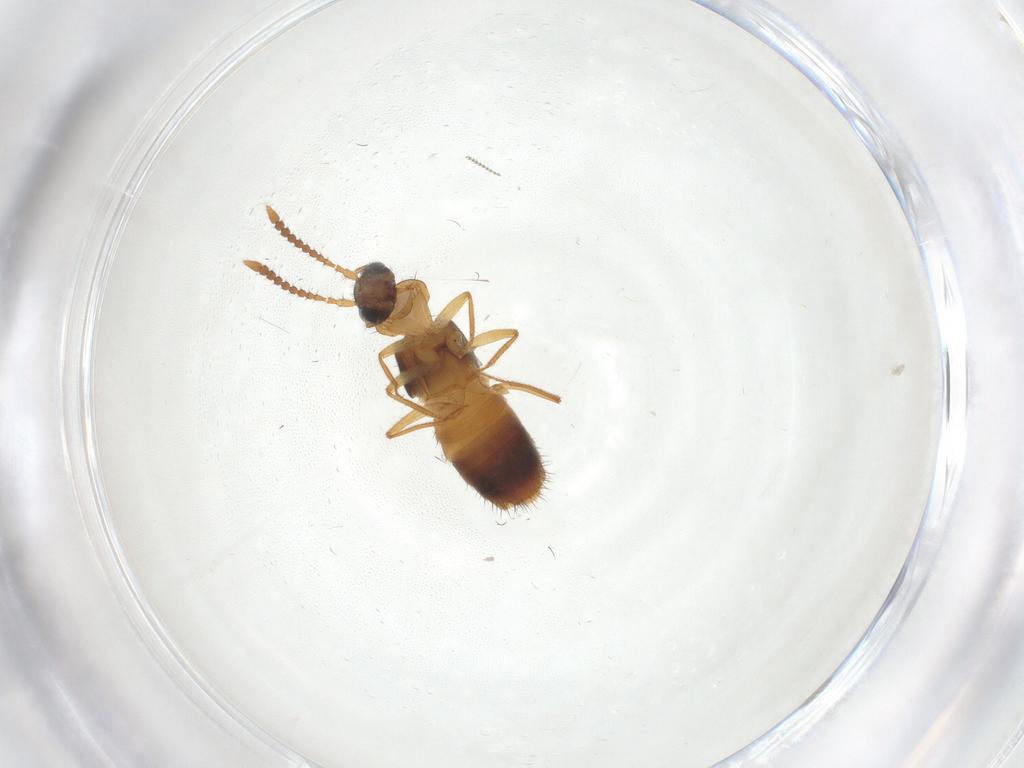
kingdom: Animalia
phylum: Arthropoda
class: Insecta
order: Coleoptera
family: Staphylinidae
